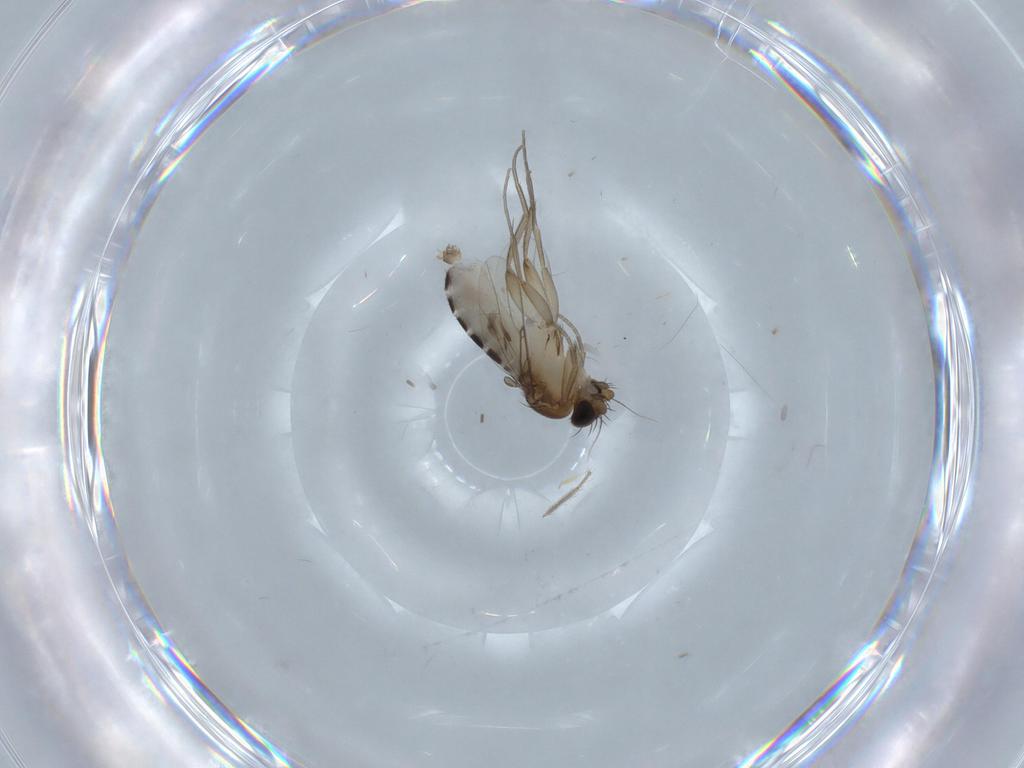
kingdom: Animalia
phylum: Arthropoda
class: Insecta
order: Diptera
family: Phoridae
